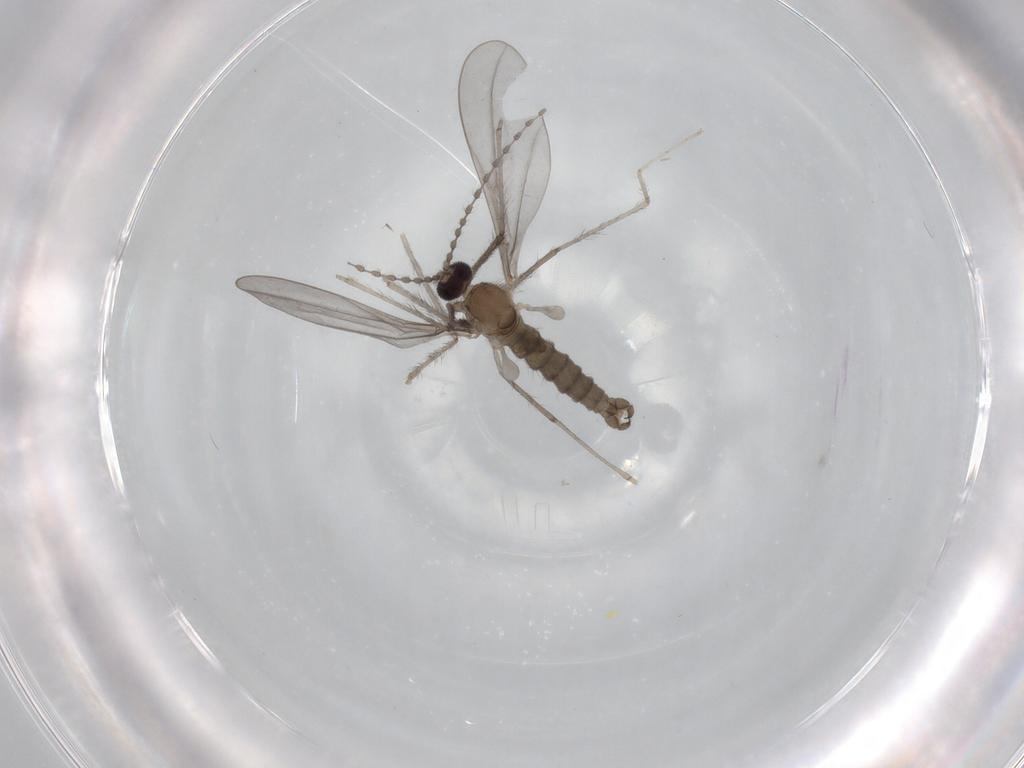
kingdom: Animalia
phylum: Arthropoda
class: Insecta
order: Diptera
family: Cecidomyiidae
